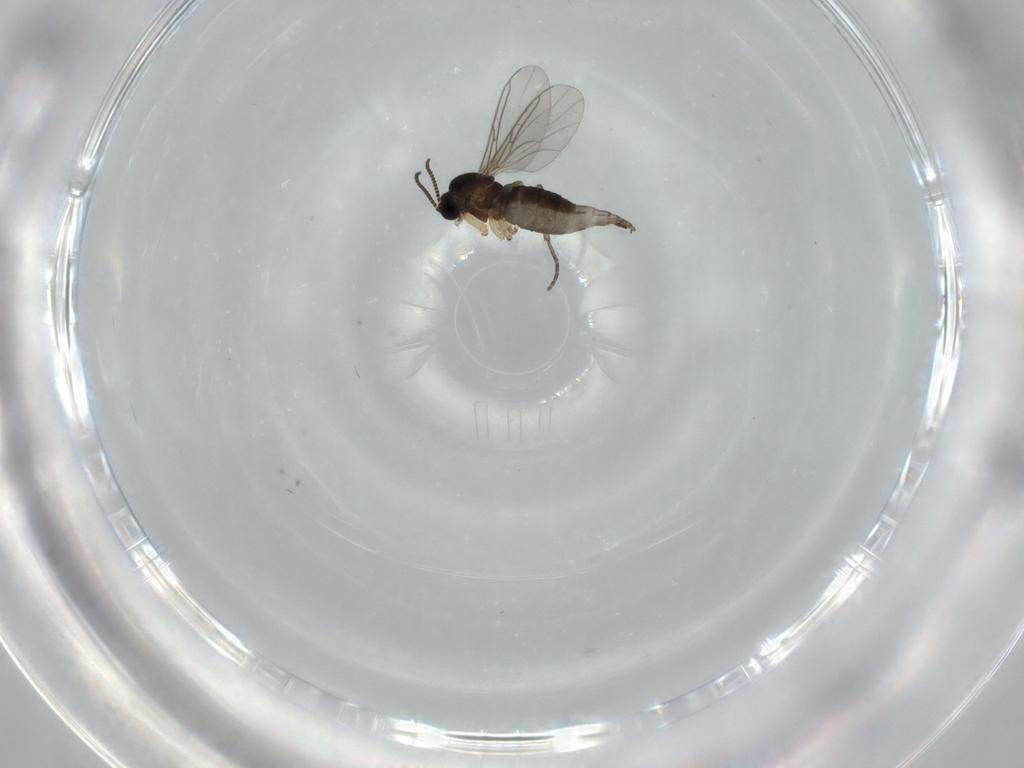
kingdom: Animalia
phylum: Arthropoda
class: Insecta
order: Diptera
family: Sciaridae
